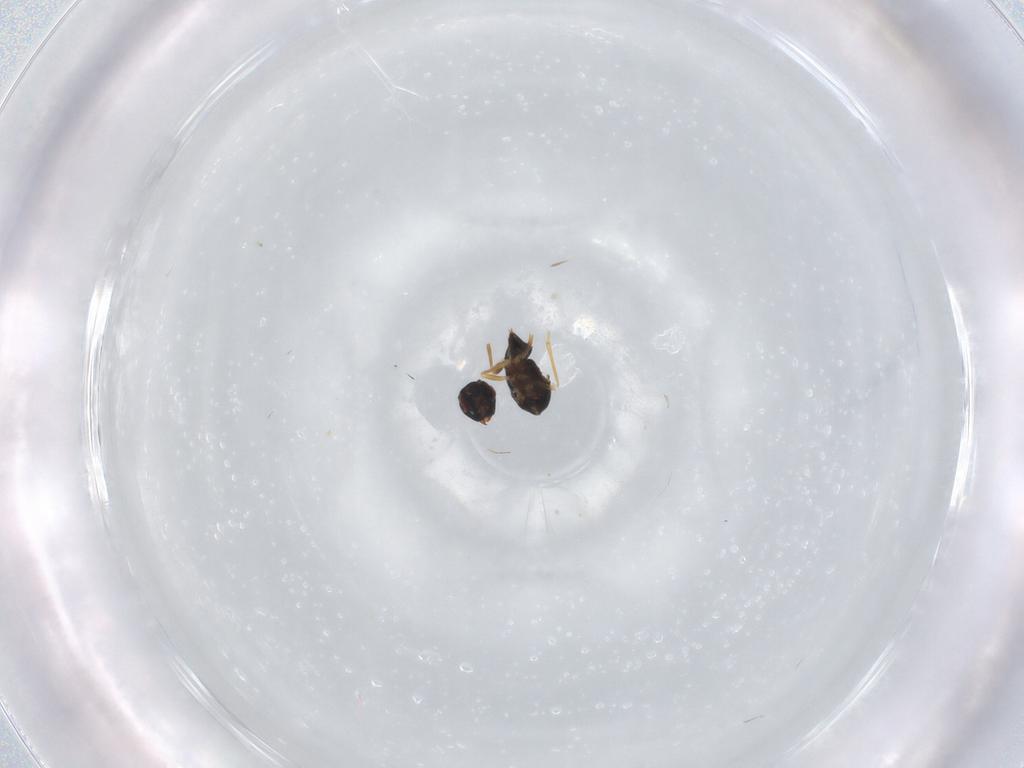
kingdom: Animalia
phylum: Arthropoda
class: Insecta
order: Hymenoptera
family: Encyrtidae
